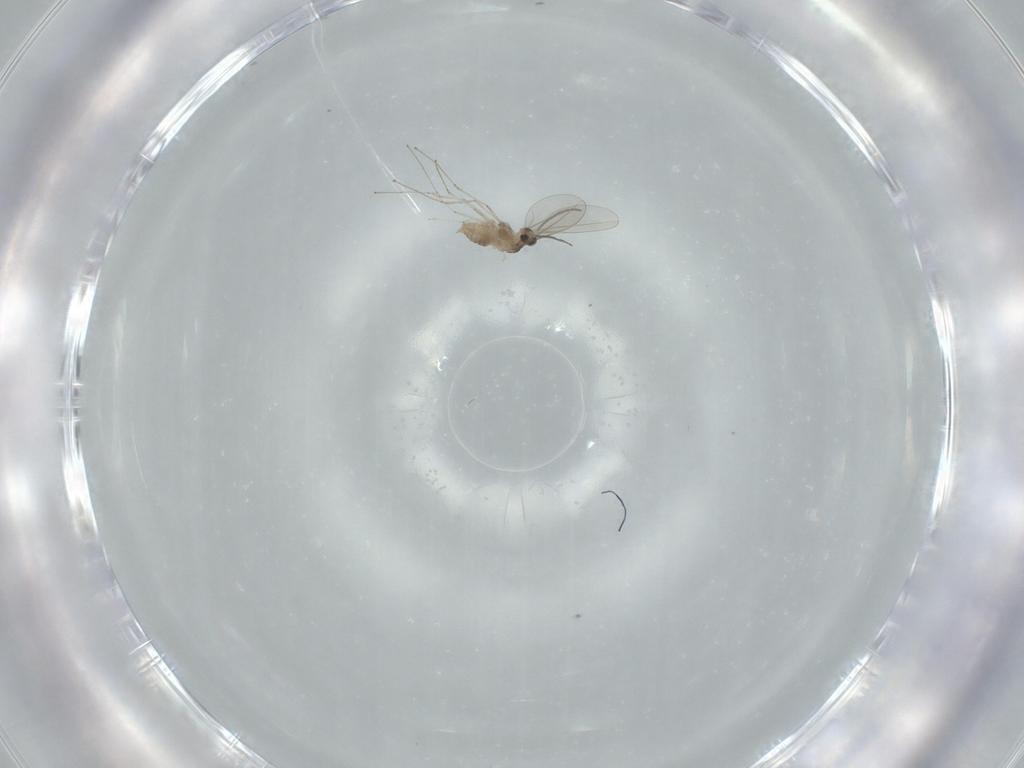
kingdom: Animalia
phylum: Arthropoda
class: Insecta
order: Diptera
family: Cecidomyiidae
